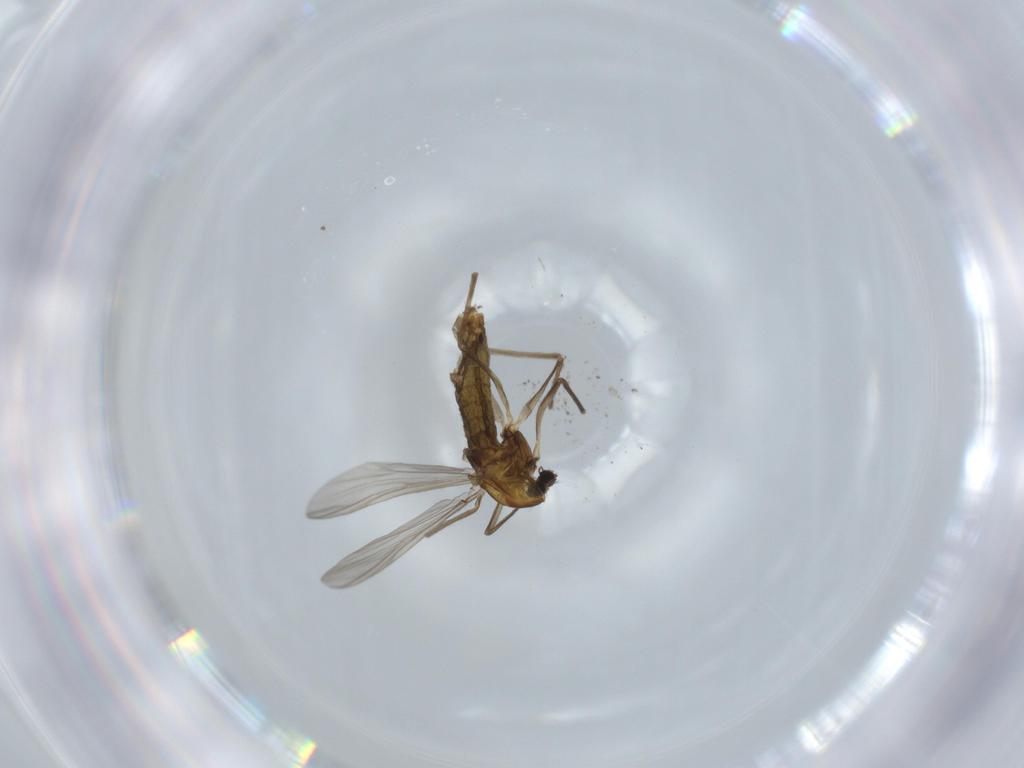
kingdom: Animalia
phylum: Arthropoda
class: Insecta
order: Diptera
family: Chironomidae
